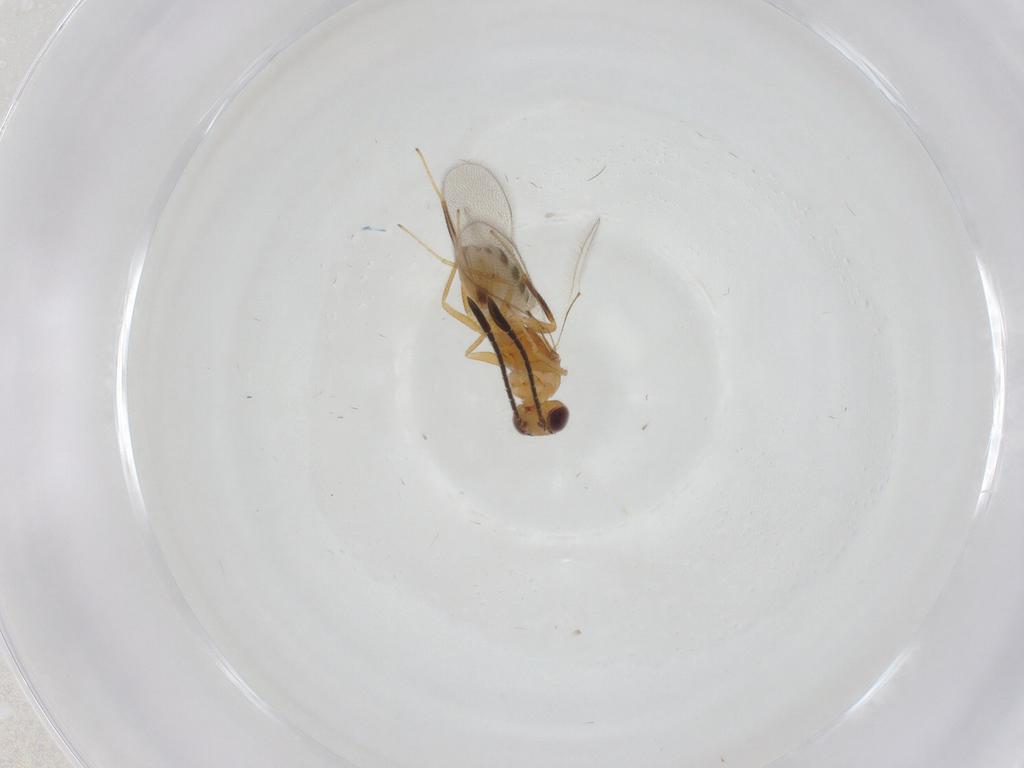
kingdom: Animalia
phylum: Arthropoda
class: Insecta
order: Hymenoptera
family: Mymaridae
